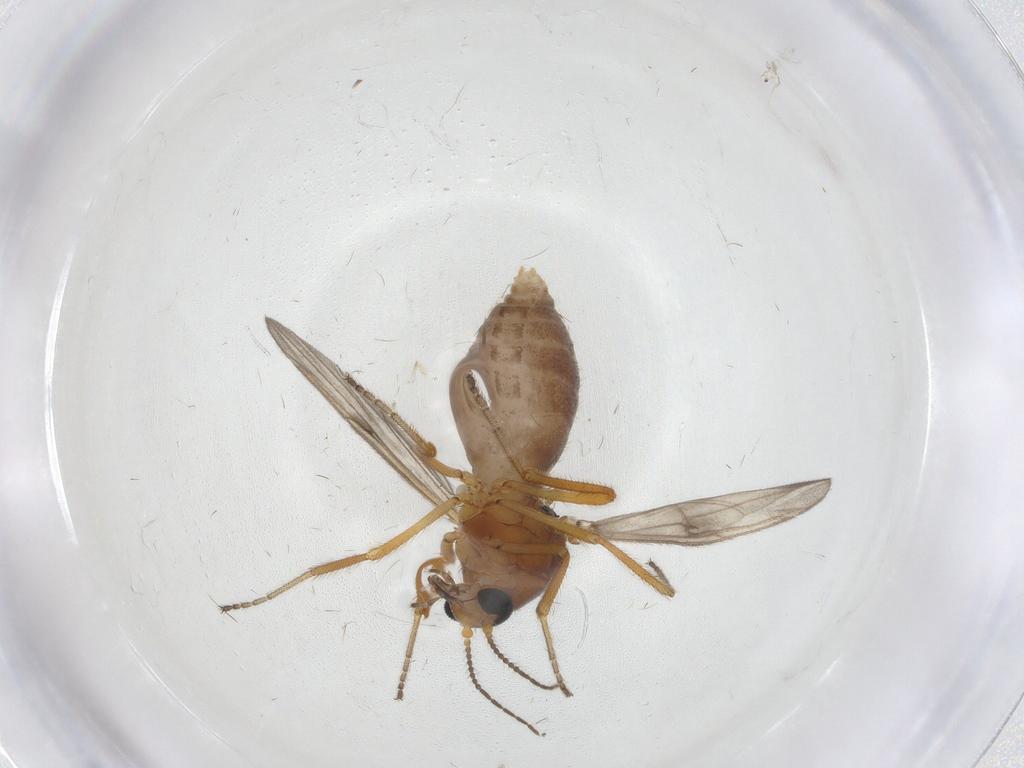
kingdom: Animalia
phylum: Arthropoda
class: Insecta
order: Diptera
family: Ceratopogonidae
